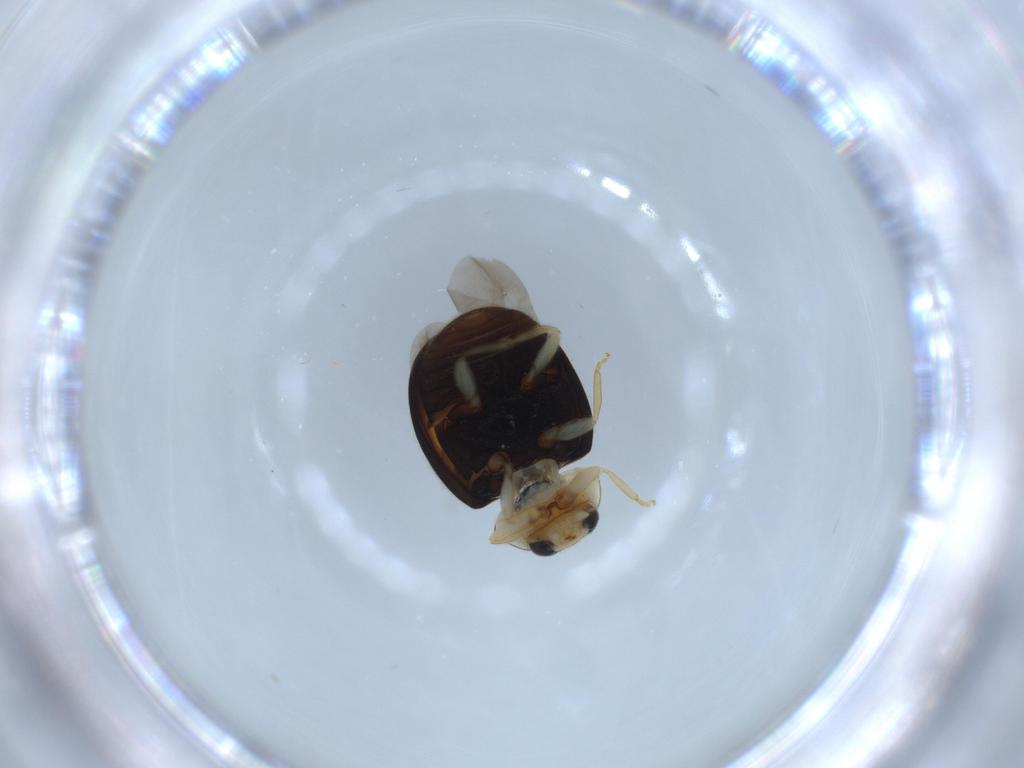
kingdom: Animalia
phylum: Arthropoda
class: Insecta
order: Coleoptera
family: Coccinellidae
